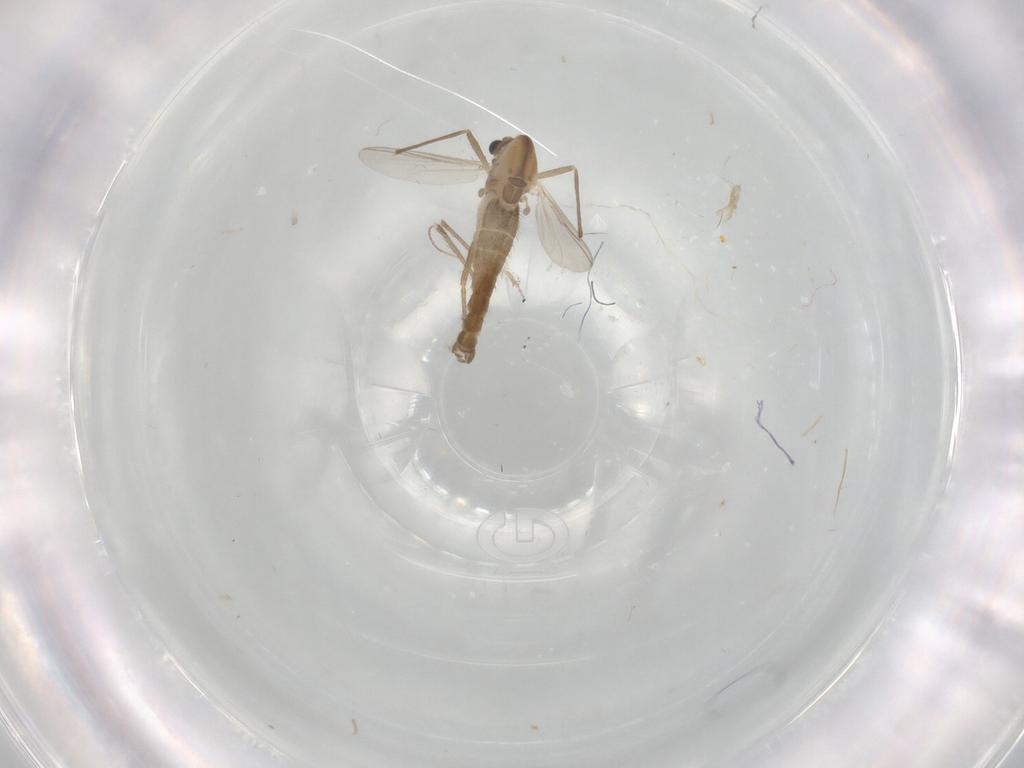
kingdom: Animalia
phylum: Arthropoda
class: Insecta
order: Diptera
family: Chironomidae
